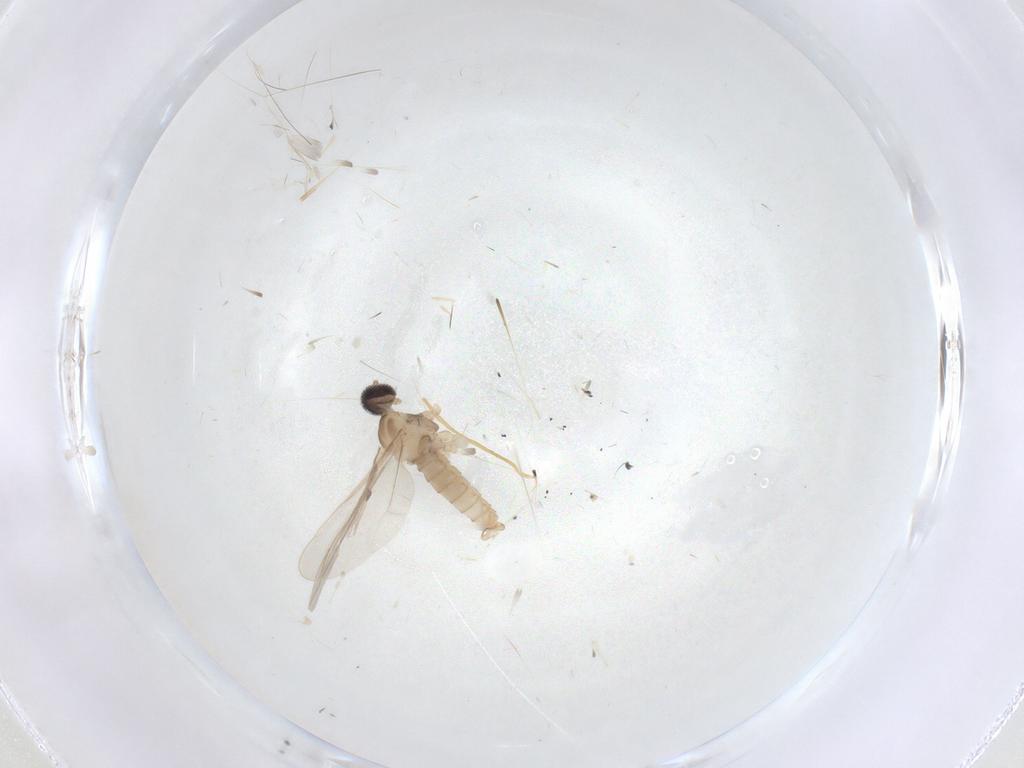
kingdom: Animalia
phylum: Arthropoda
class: Insecta
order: Diptera
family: Cecidomyiidae
